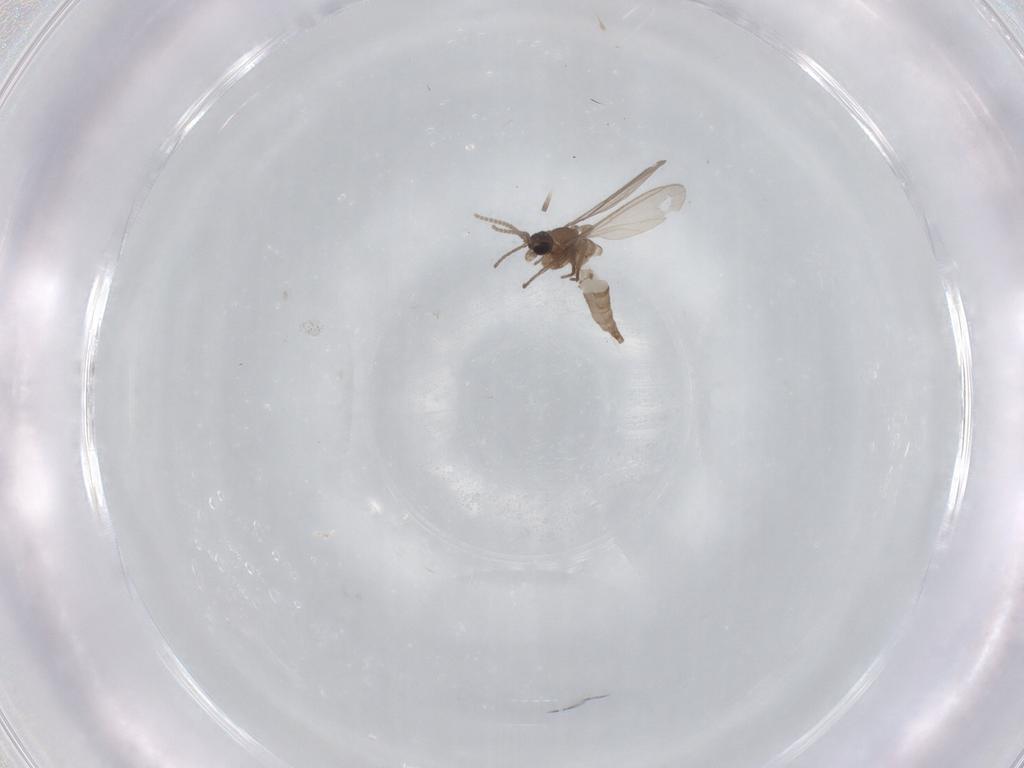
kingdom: Animalia
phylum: Arthropoda
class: Insecta
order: Diptera
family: Sciaridae
